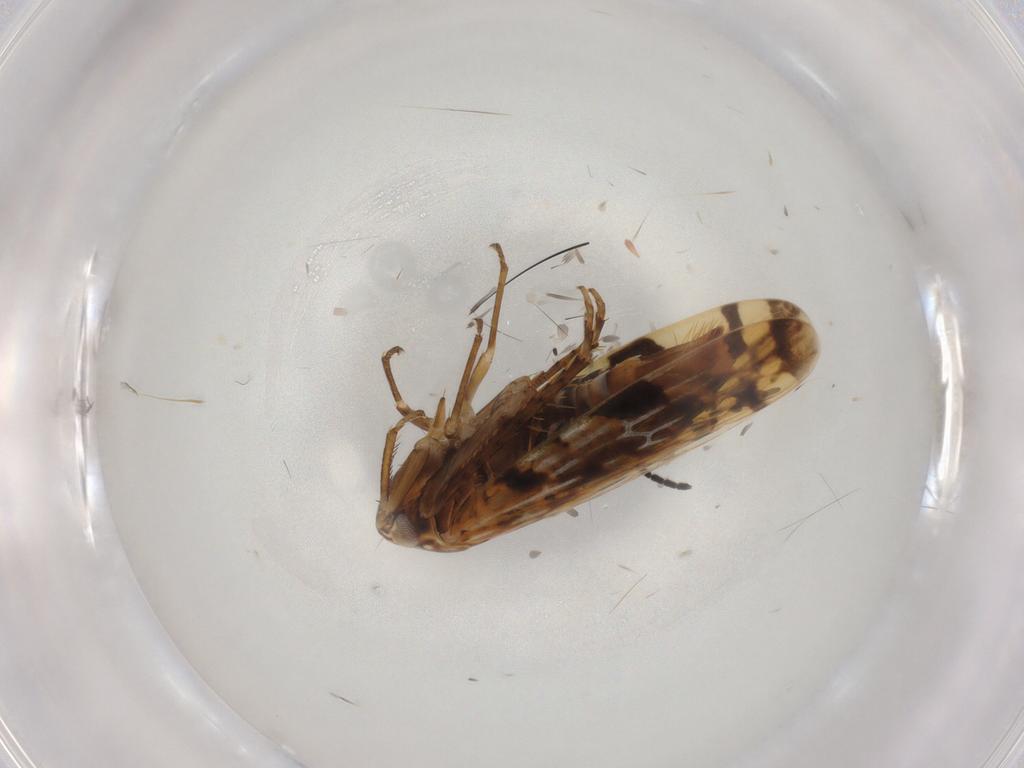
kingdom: Animalia
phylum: Arthropoda
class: Insecta
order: Hemiptera
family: Cicadellidae
